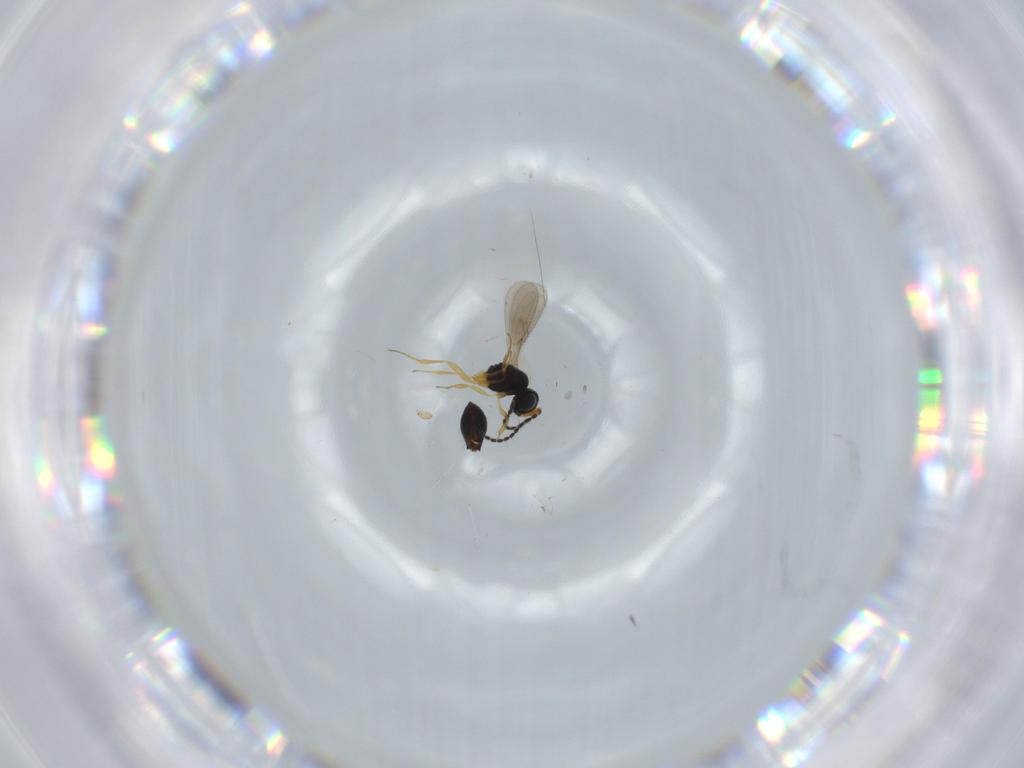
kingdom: Animalia
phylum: Arthropoda
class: Insecta
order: Hymenoptera
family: Scelionidae
